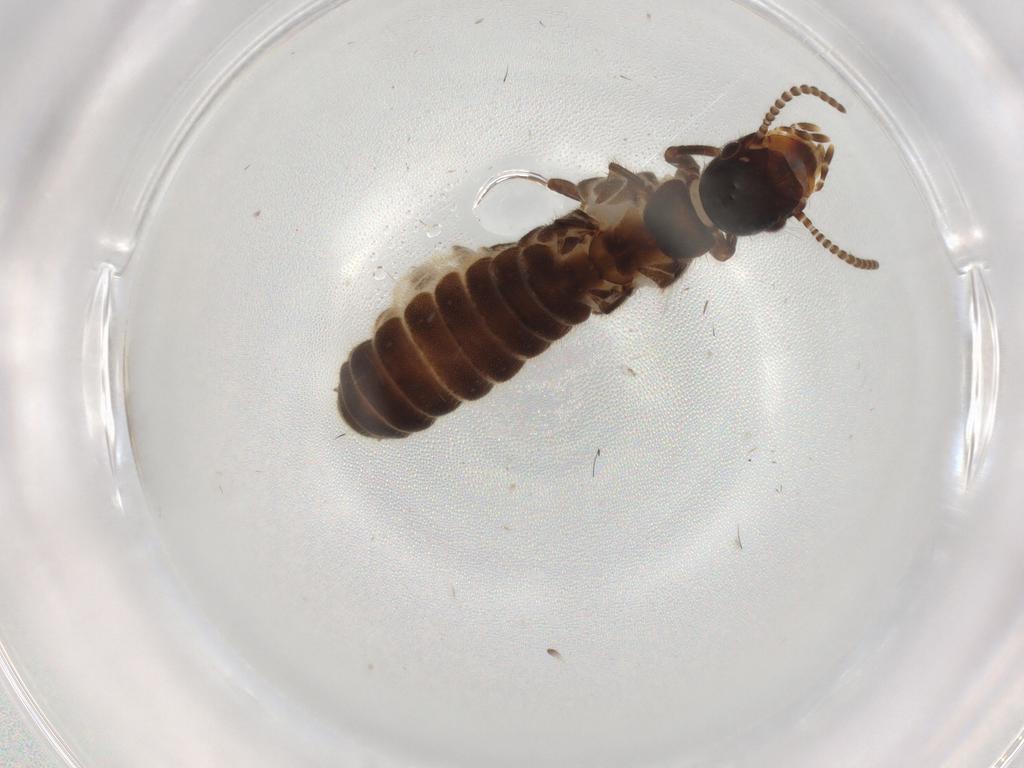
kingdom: Animalia
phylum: Arthropoda
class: Insecta
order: Blattodea
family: Termitidae
